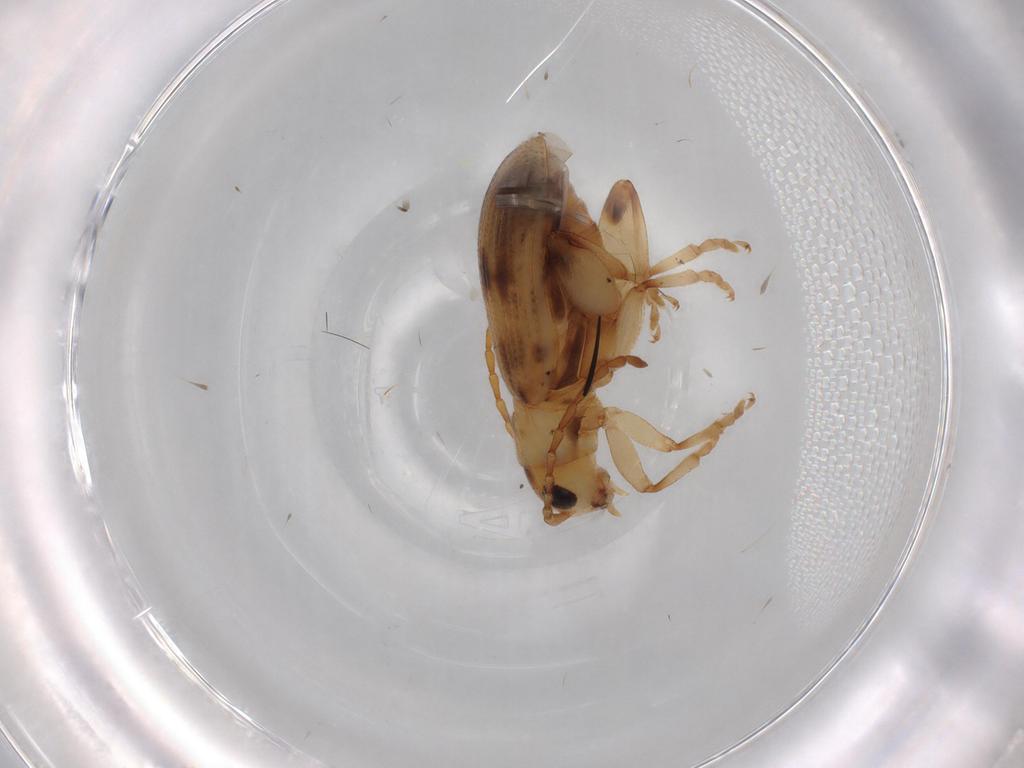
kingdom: Animalia
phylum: Arthropoda
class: Insecta
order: Coleoptera
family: Chrysomelidae
